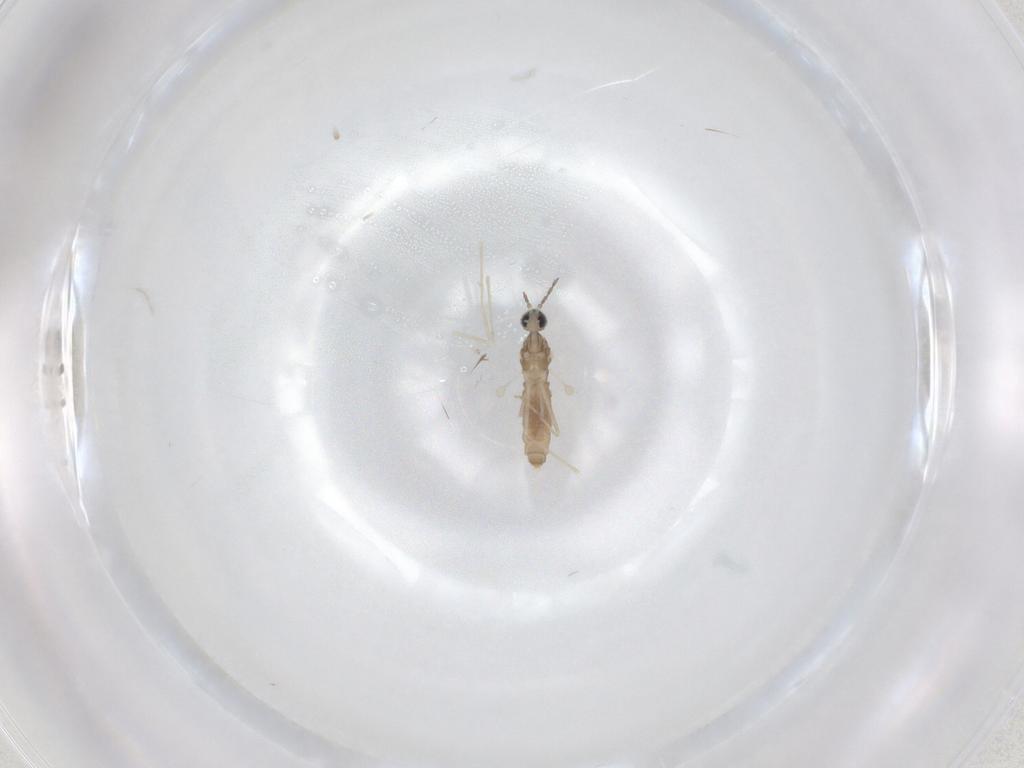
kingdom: Animalia
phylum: Arthropoda
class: Insecta
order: Diptera
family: Cecidomyiidae
